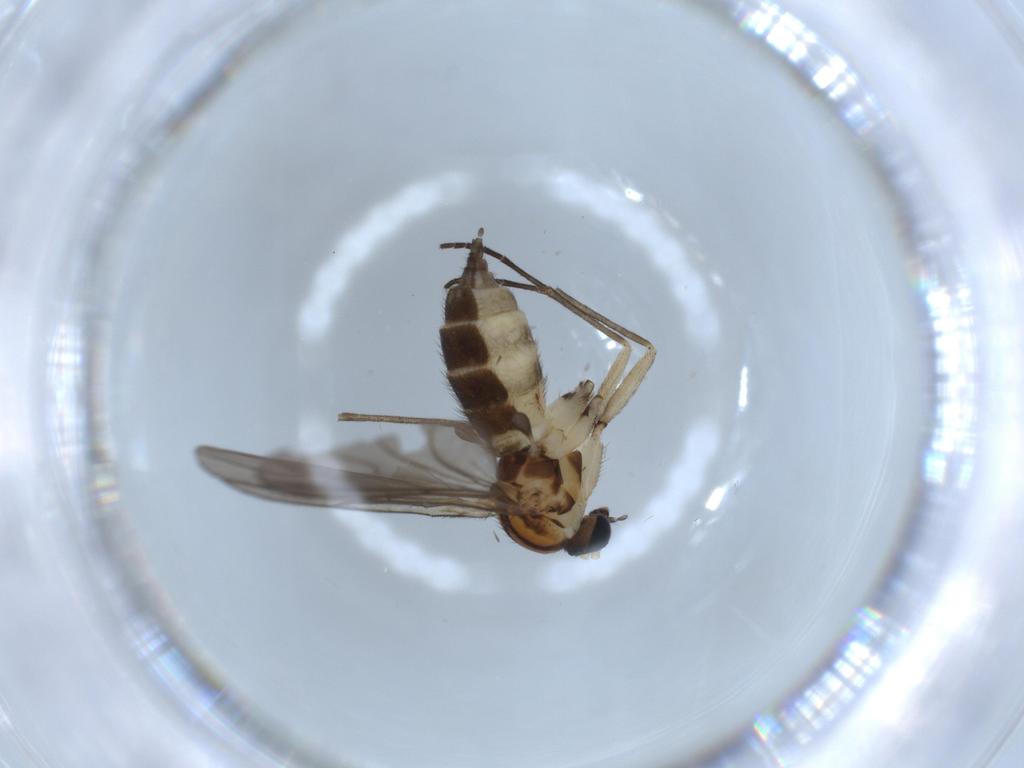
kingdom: Animalia
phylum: Arthropoda
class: Insecta
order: Diptera
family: Sciaridae
